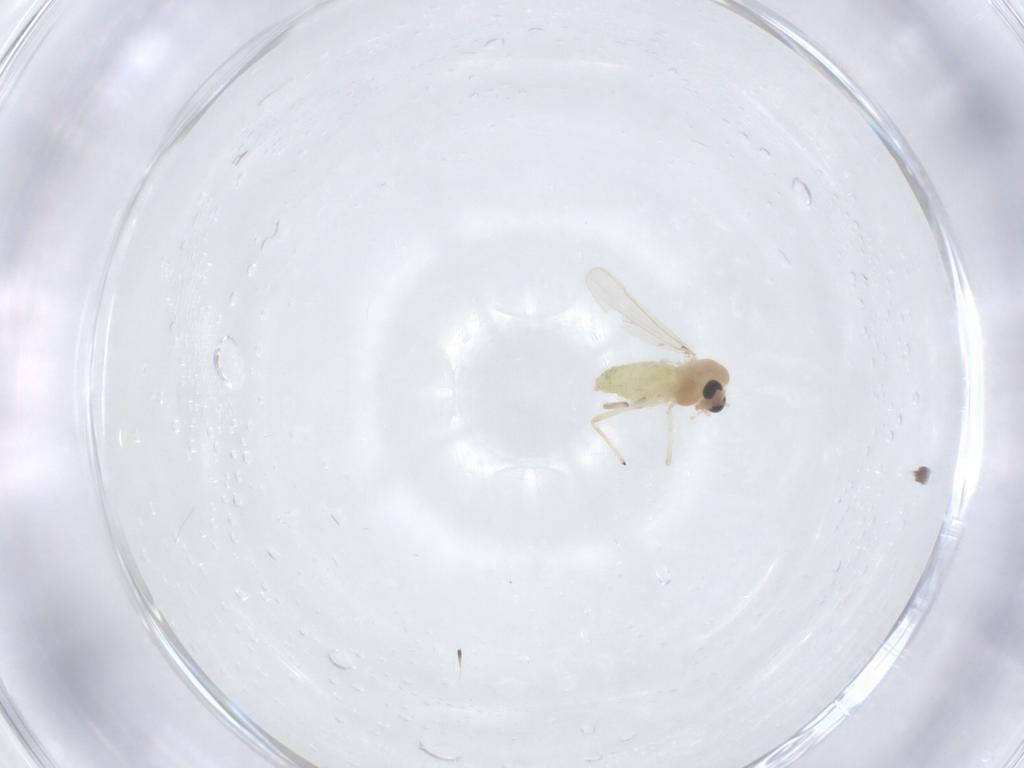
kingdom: Animalia
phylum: Arthropoda
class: Insecta
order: Diptera
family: Chironomidae
